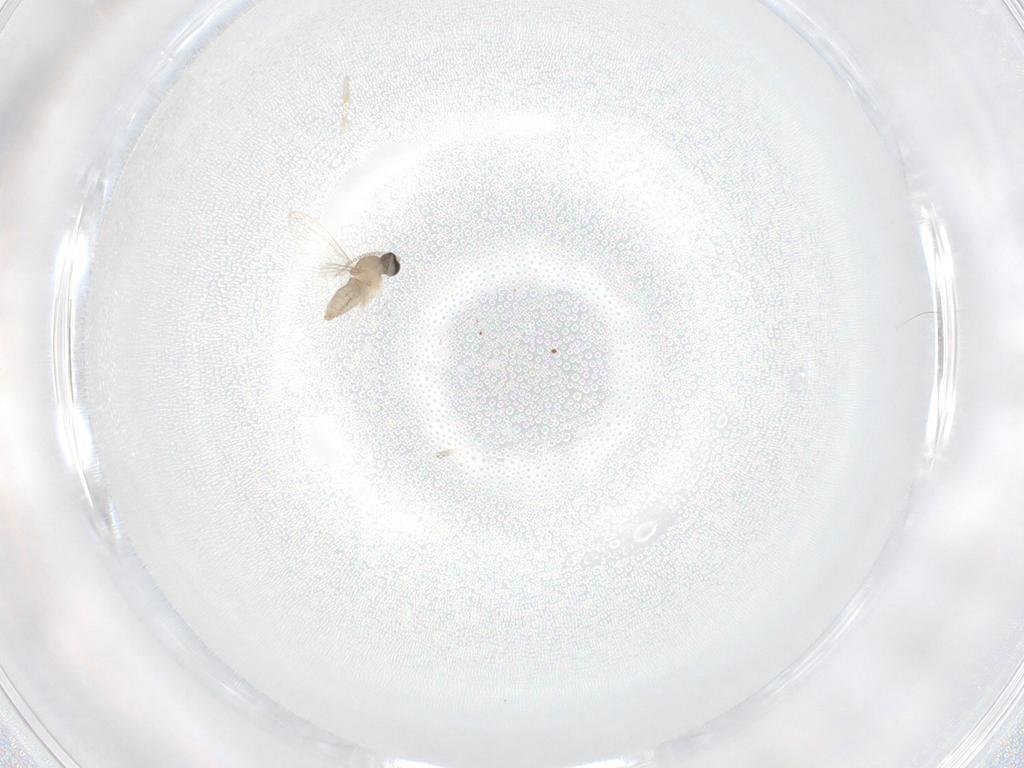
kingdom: Animalia
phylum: Arthropoda
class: Insecta
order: Diptera
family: Cecidomyiidae
